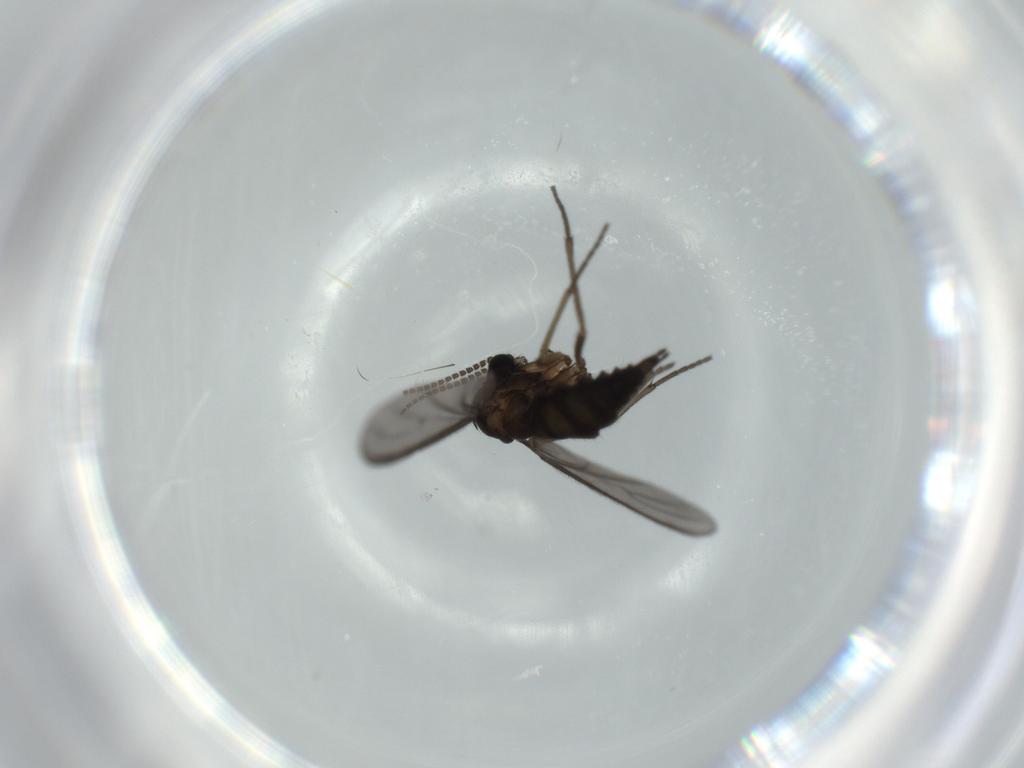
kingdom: Animalia
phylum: Arthropoda
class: Insecta
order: Diptera
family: Sciaridae
